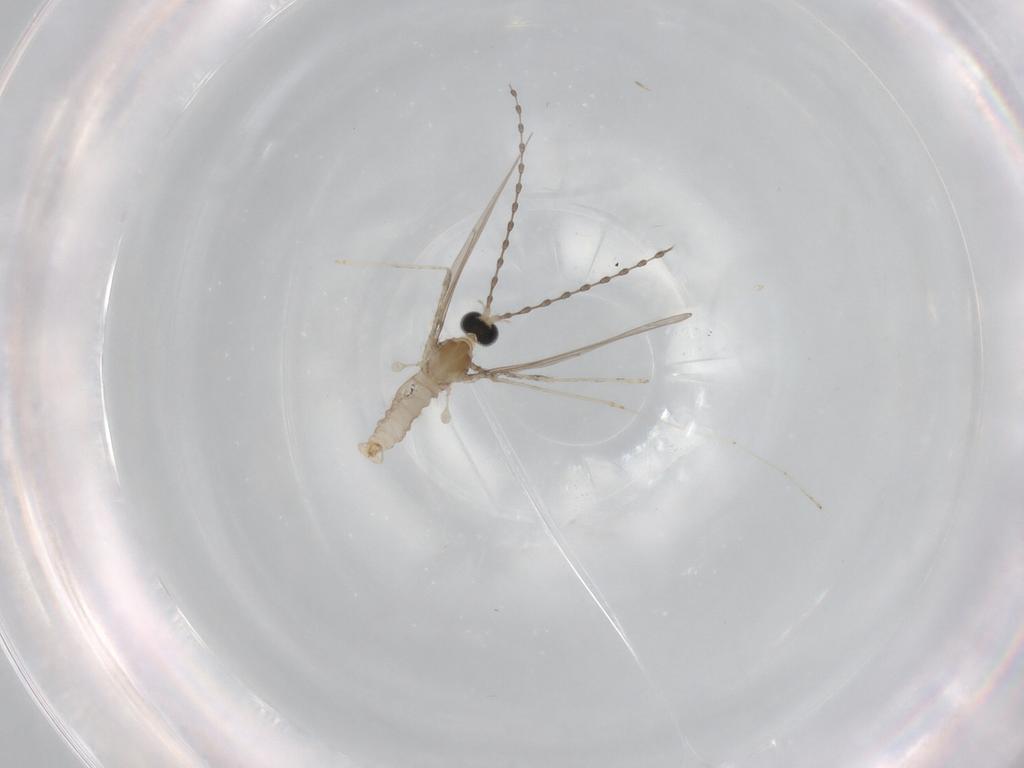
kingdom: Animalia
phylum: Arthropoda
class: Insecta
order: Diptera
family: Cecidomyiidae
